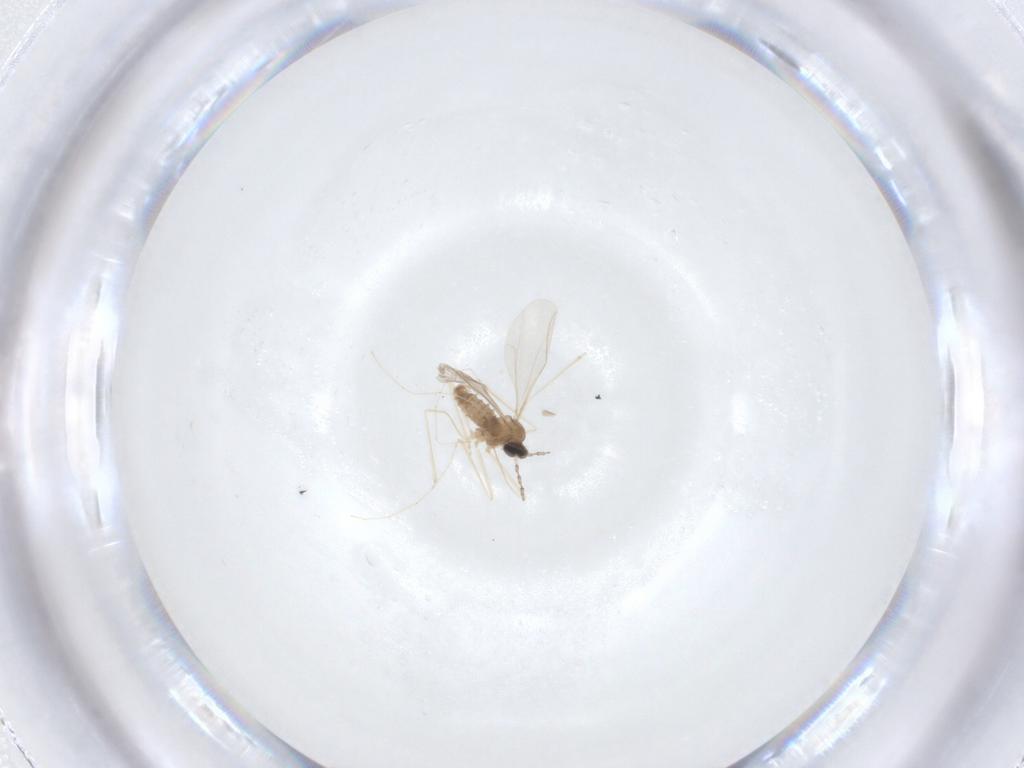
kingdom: Animalia
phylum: Arthropoda
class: Insecta
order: Diptera
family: Cecidomyiidae
